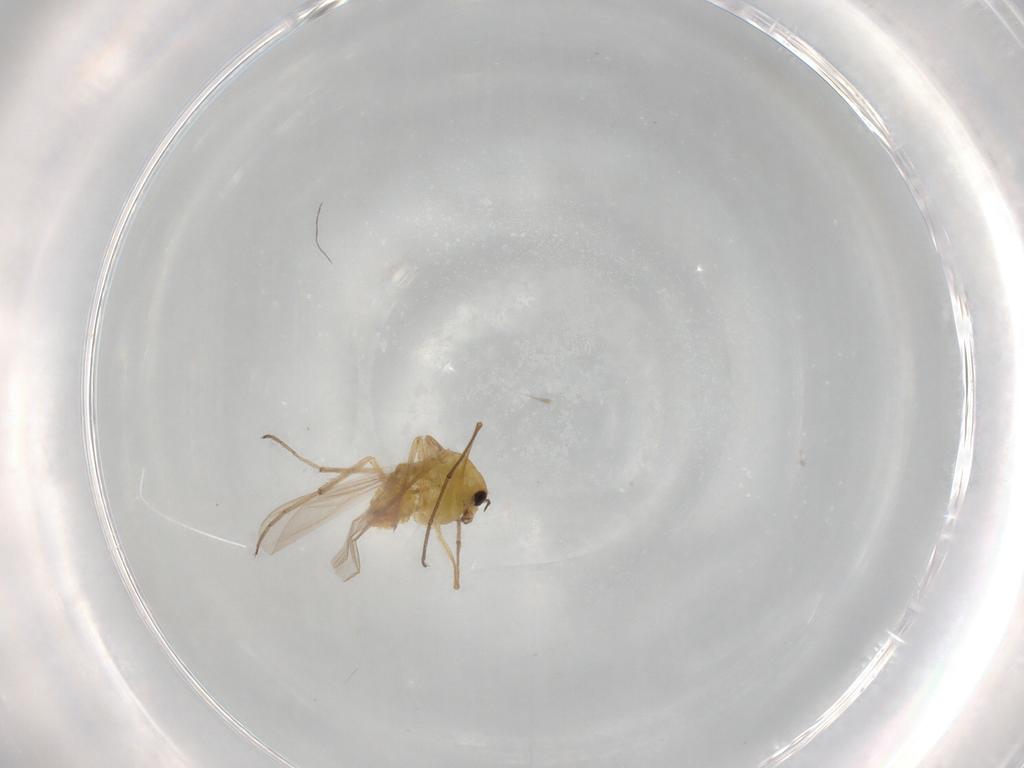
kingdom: Animalia
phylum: Arthropoda
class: Insecta
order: Diptera
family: Chironomidae
